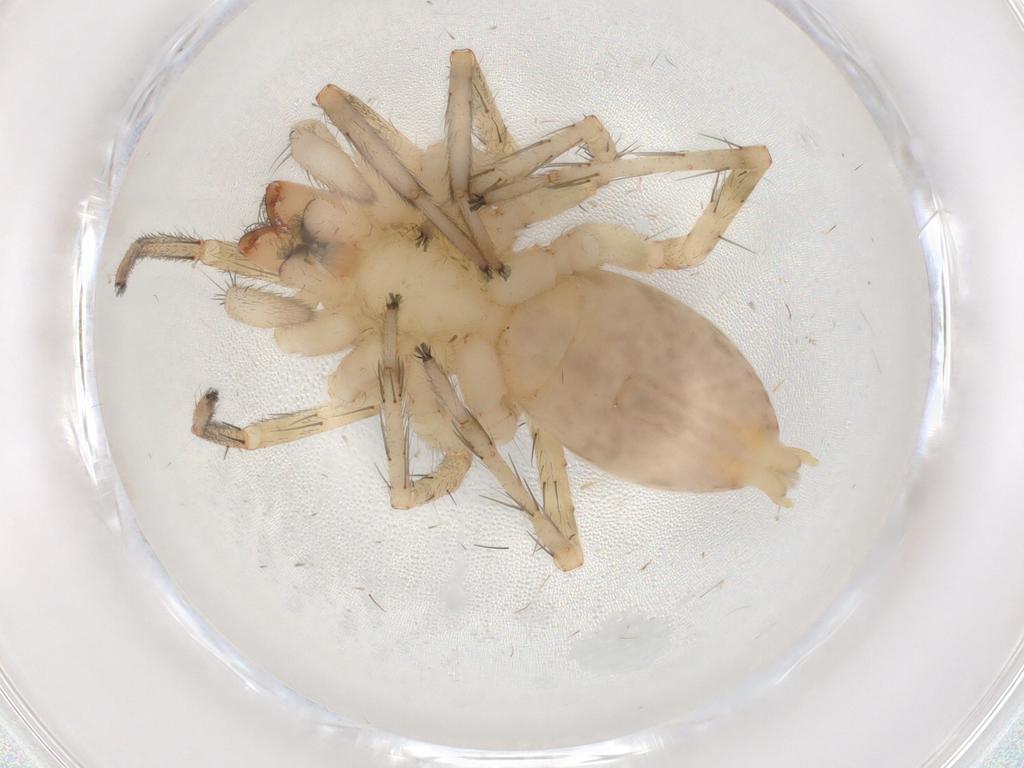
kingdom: Animalia
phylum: Arthropoda
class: Arachnida
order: Araneae
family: Anyphaenidae
